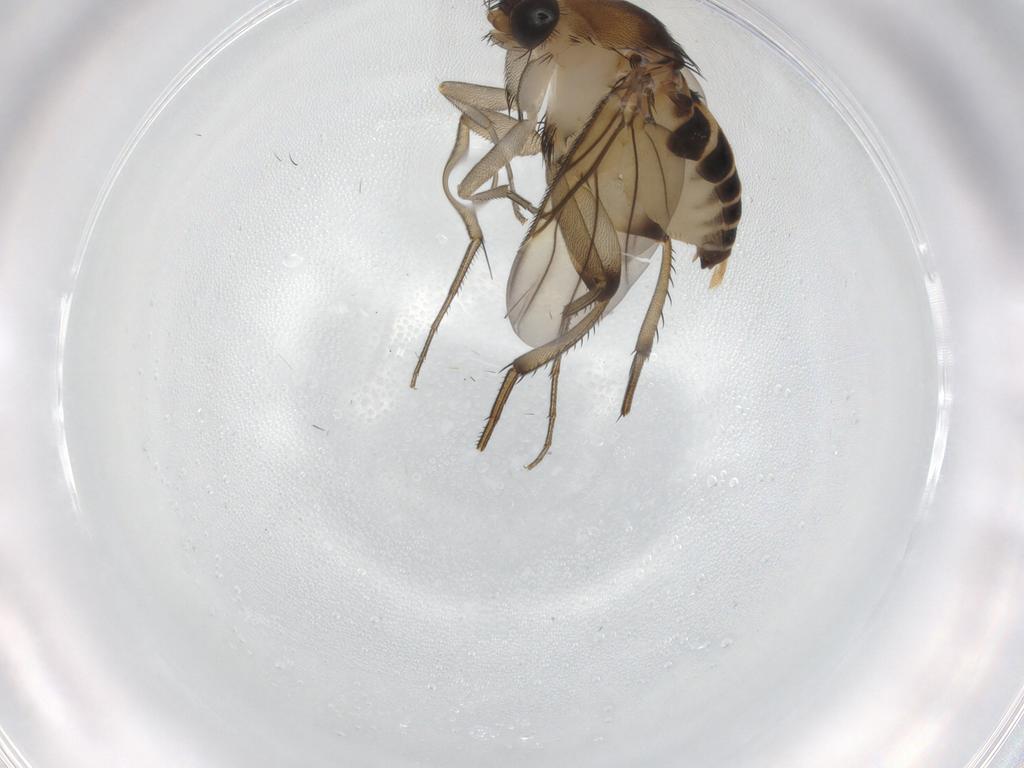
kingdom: Animalia
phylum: Arthropoda
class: Insecta
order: Diptera
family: Phoridae
